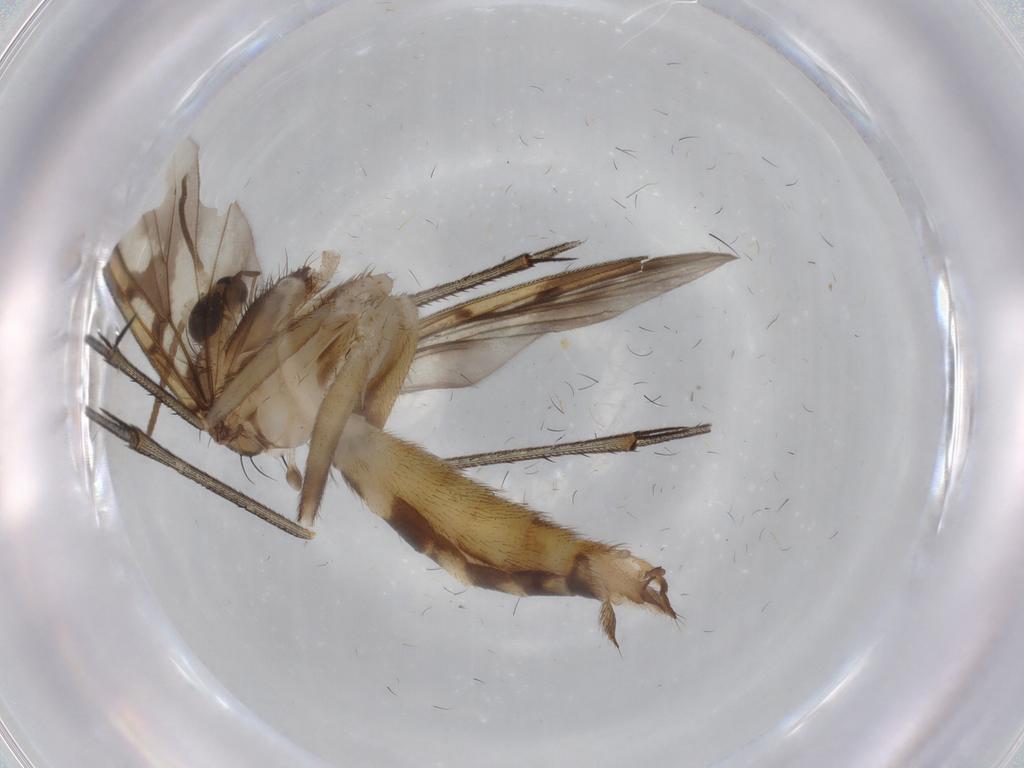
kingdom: Animalia
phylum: Arthropoda
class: Insecta
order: Diptera
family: Mycetophilidae
